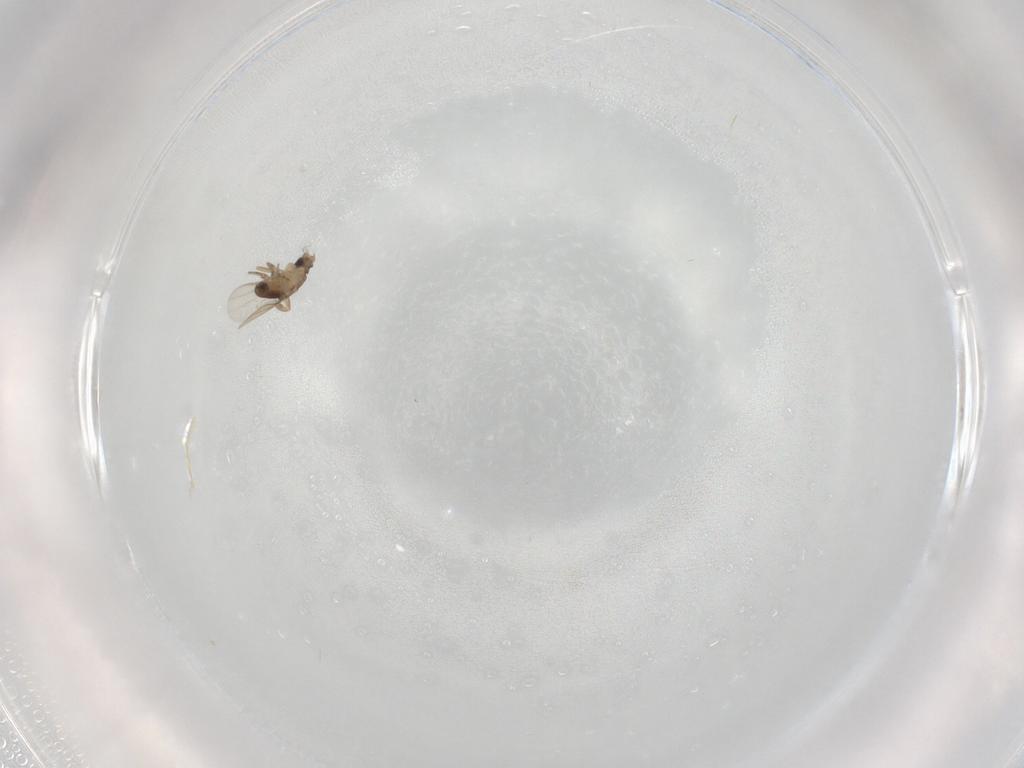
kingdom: Animalia
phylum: Arthropoda
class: Insecta
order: Diptera
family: Phoridae
